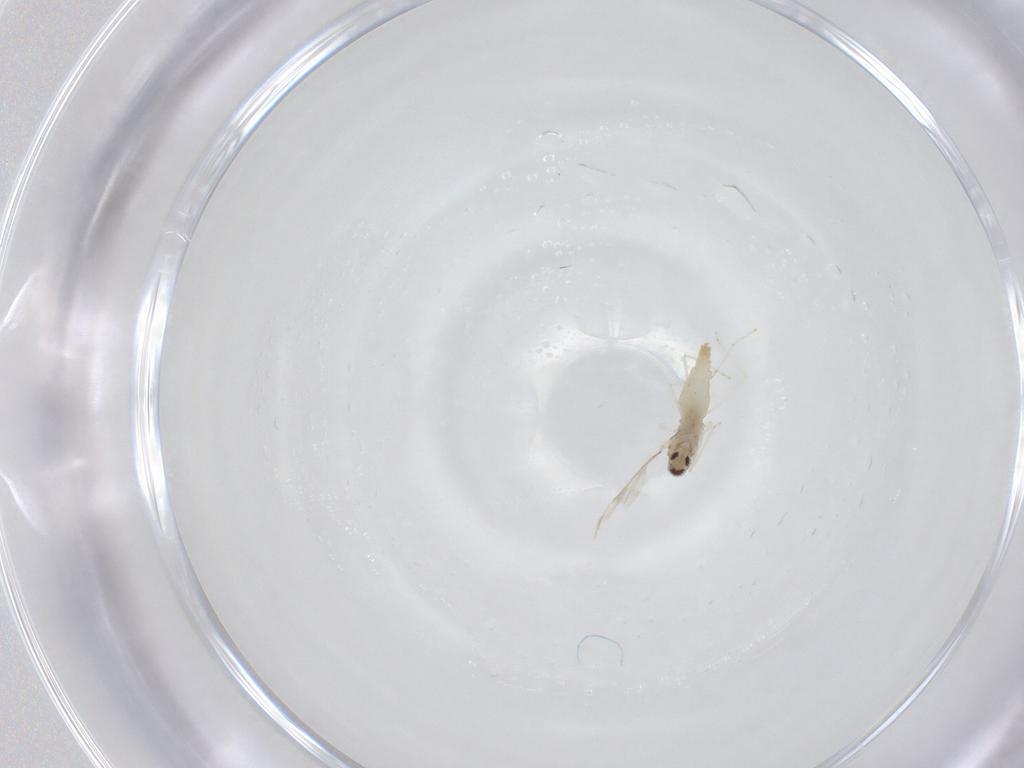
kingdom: Animalia
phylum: Arthropoda
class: Insecta
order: Diptera
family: Cecidomyiidae
